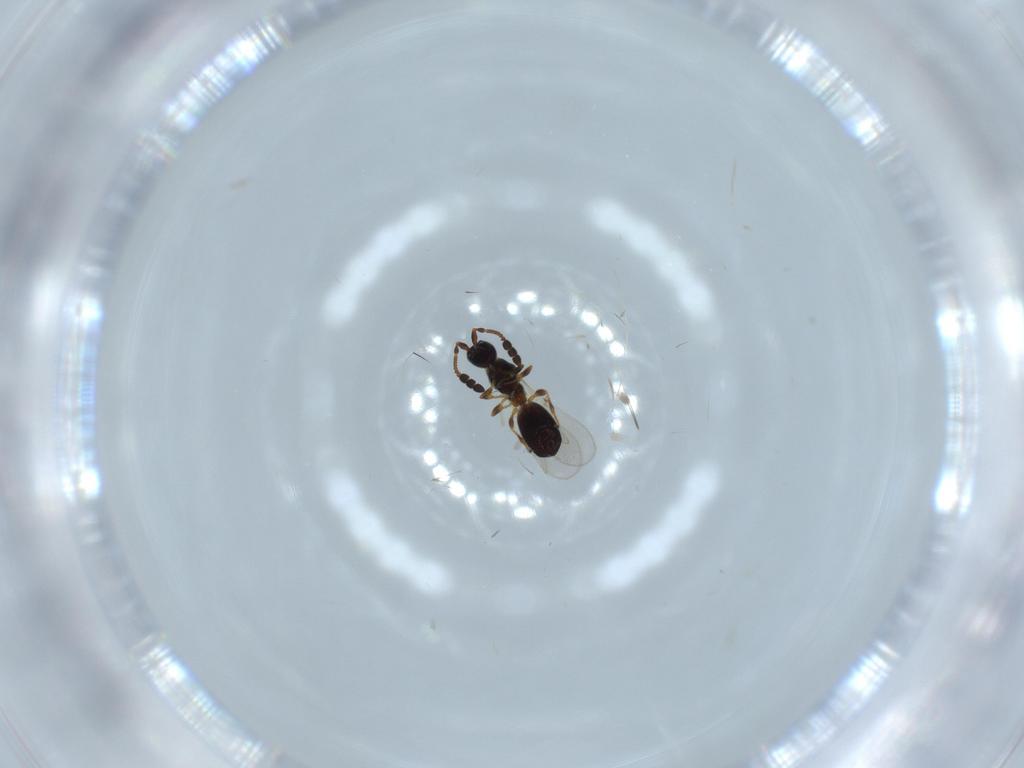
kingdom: Animalia
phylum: Arthropoda
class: Insecta
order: Hymenoptera
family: Diapriidae
